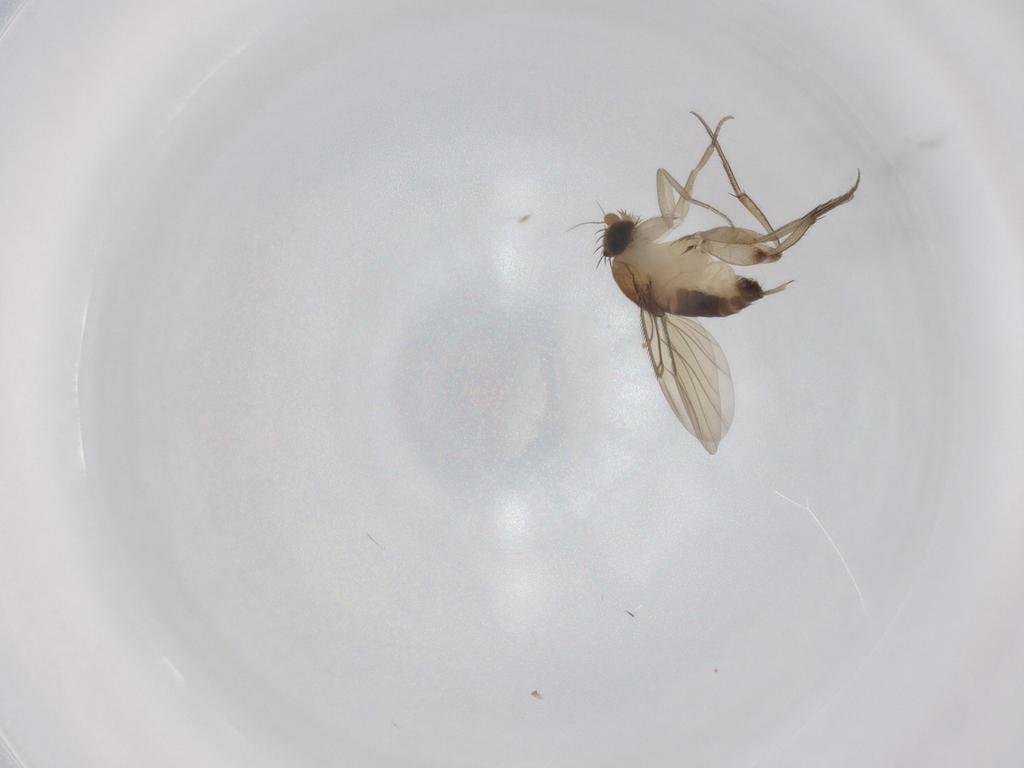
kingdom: Animalia
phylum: Arthropoda
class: Insecta
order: Diptera
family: Phoridae
